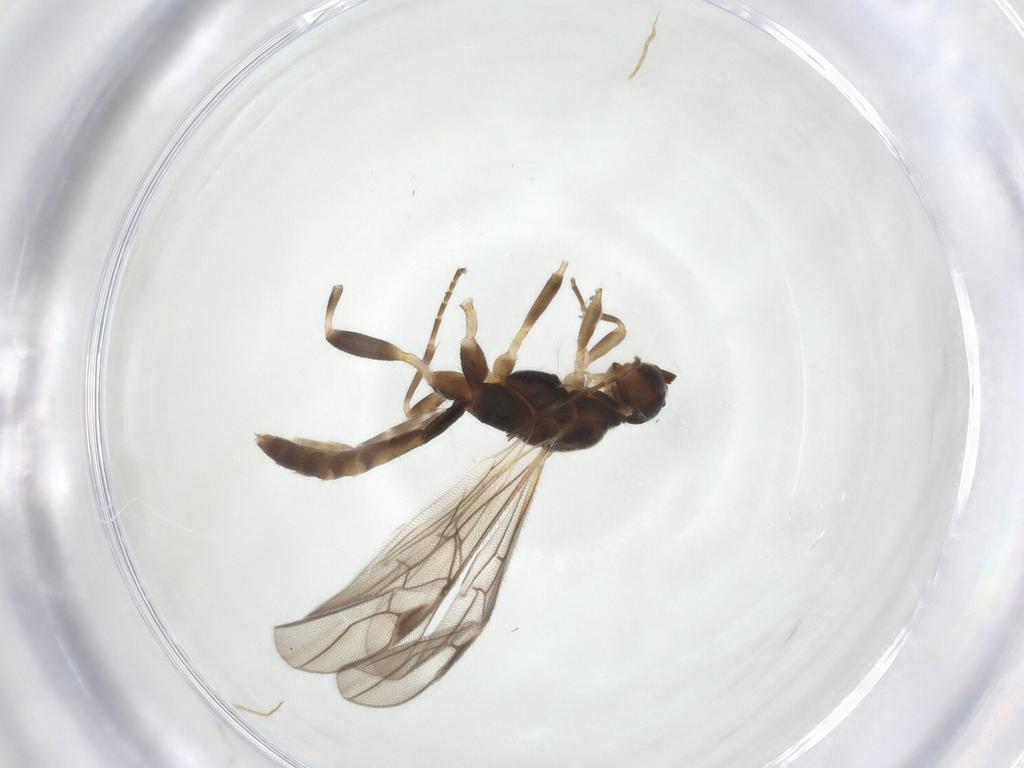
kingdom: Animalia
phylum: Arthropoda
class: Insecta
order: Hymenoptera
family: Braconidae
